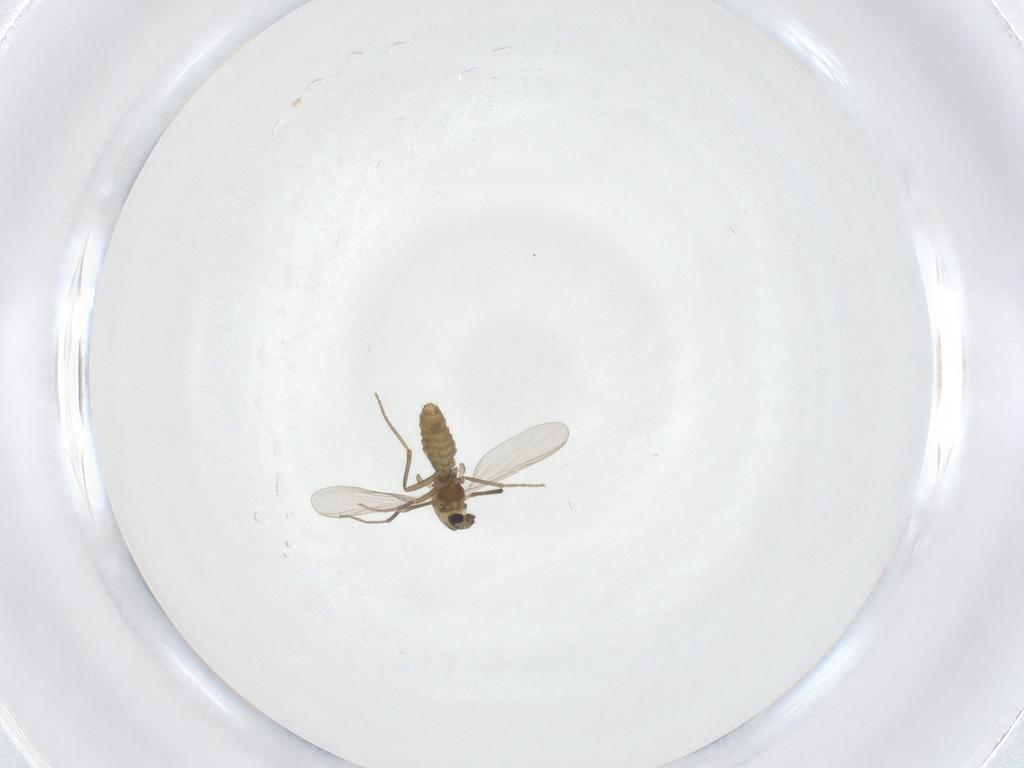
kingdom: Animalia
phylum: Arthropoda
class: Insecta
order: Diptera
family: Chironomidae
